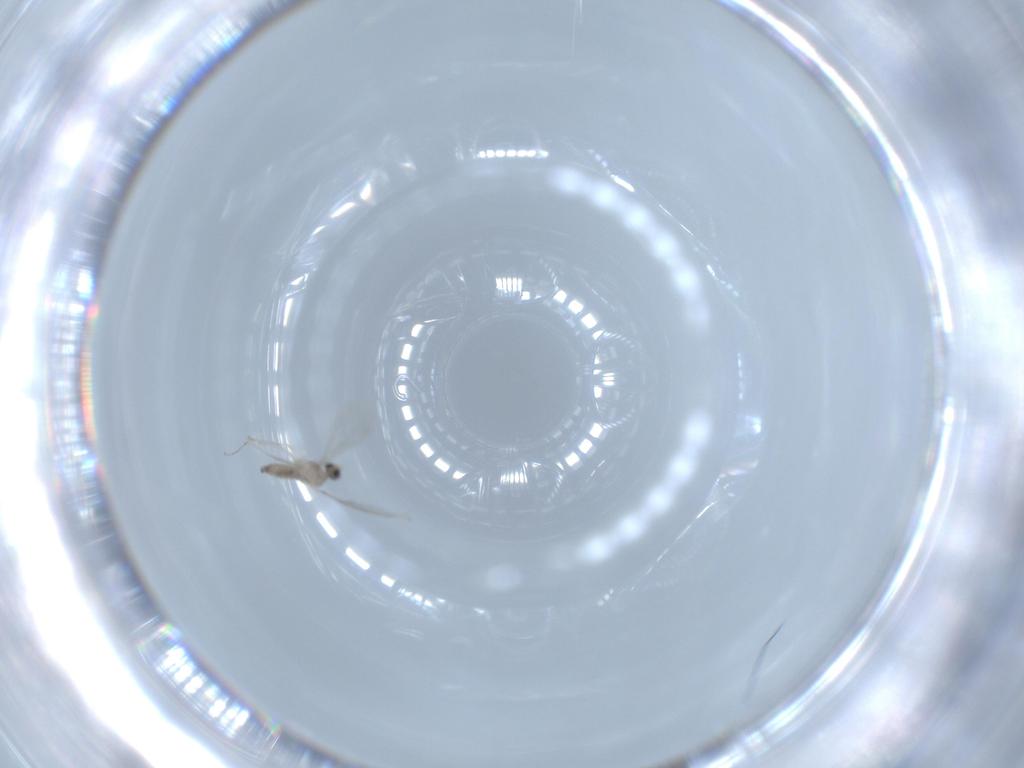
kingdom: Animalia
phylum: Arthropoda
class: Insecta
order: Diptera
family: Cecidomyiidae
